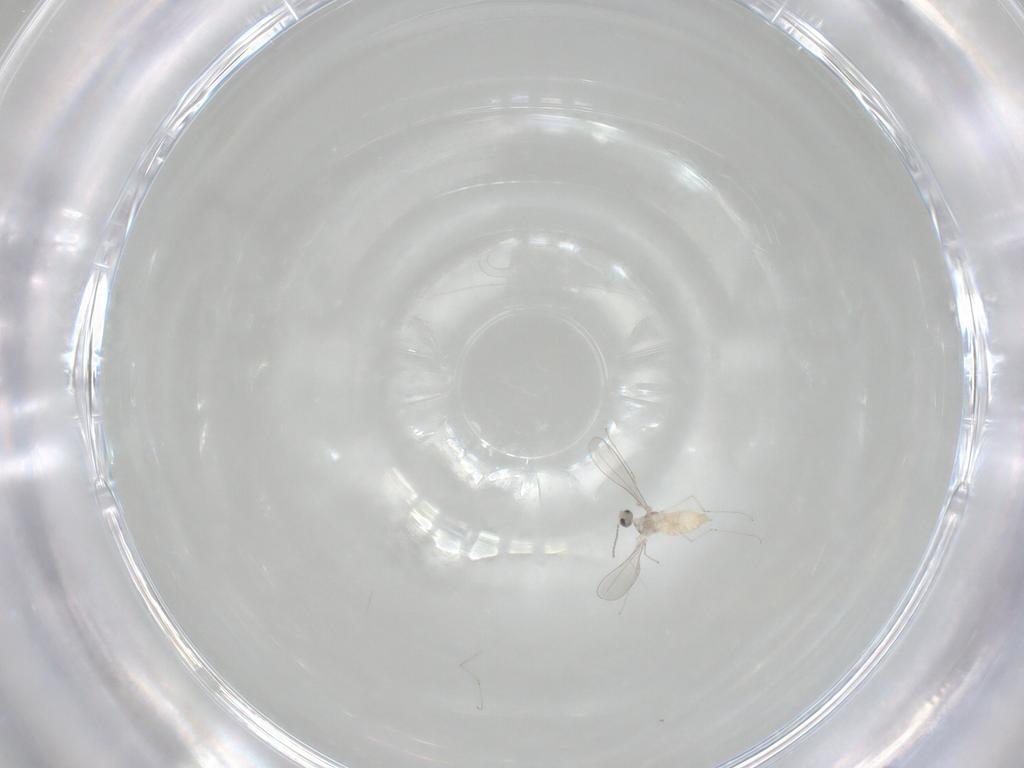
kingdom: Animalia
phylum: Arthropoda
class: Insecta
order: Diptera
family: Cecidomyiidae
